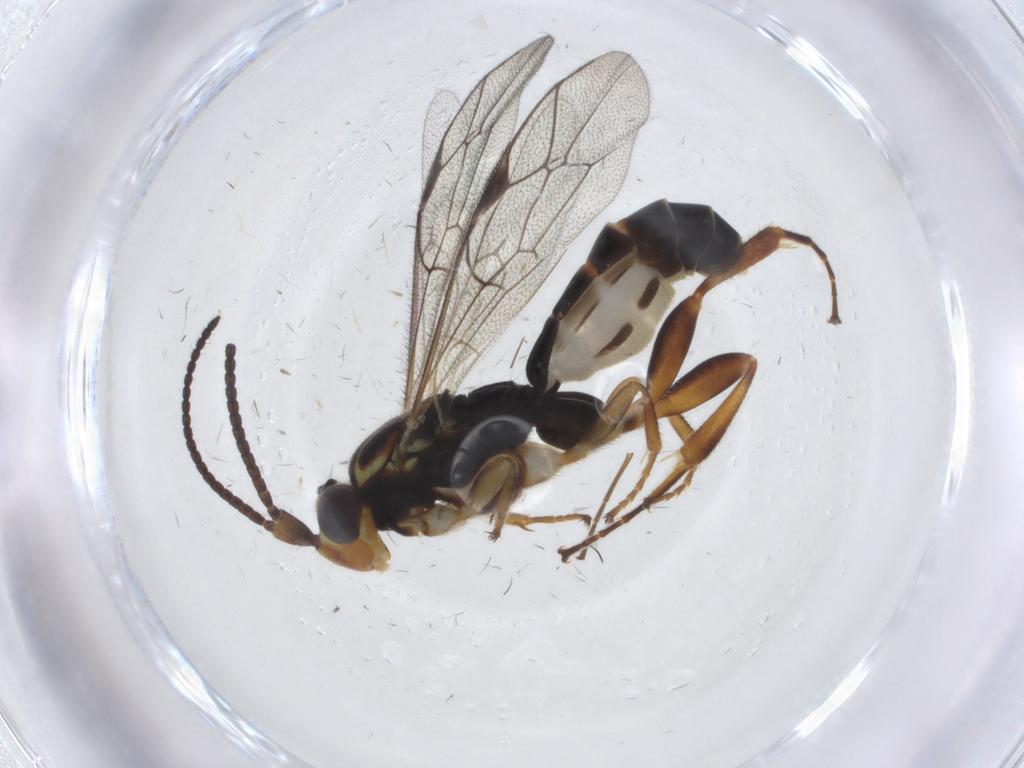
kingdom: Animalia
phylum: Arthropoda
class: Insecta
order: Hymenoptera
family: Ichneumonidae
